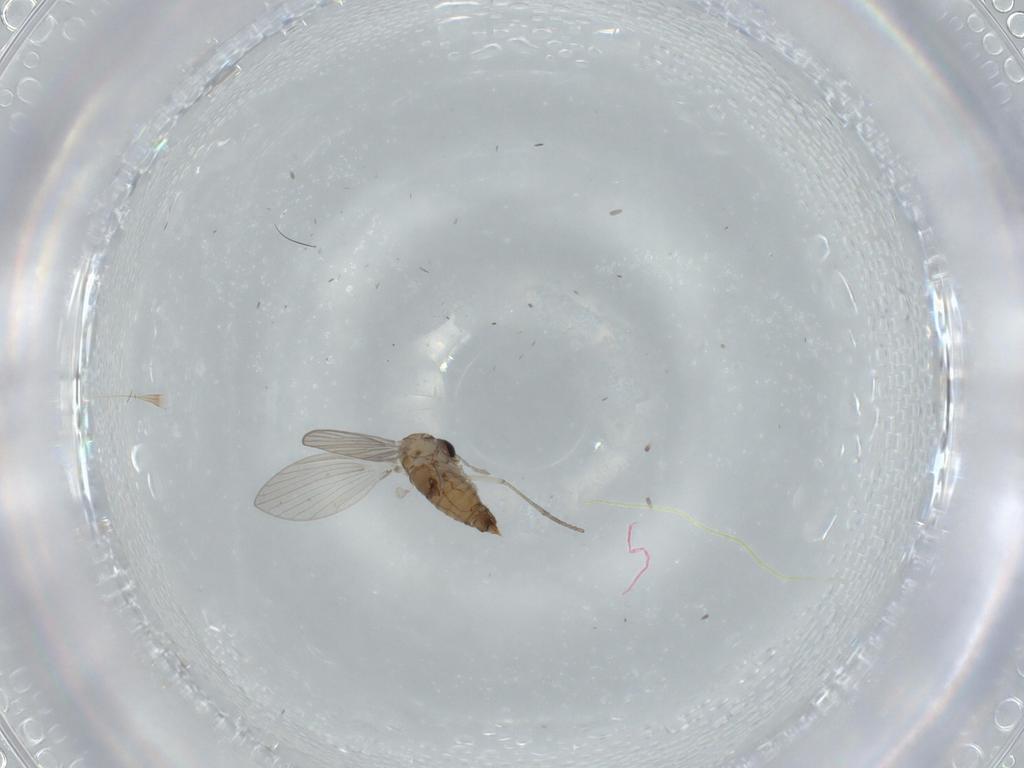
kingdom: Animalia
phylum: Arthropoda
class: Insecta
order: Diptera
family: Psychodidae
